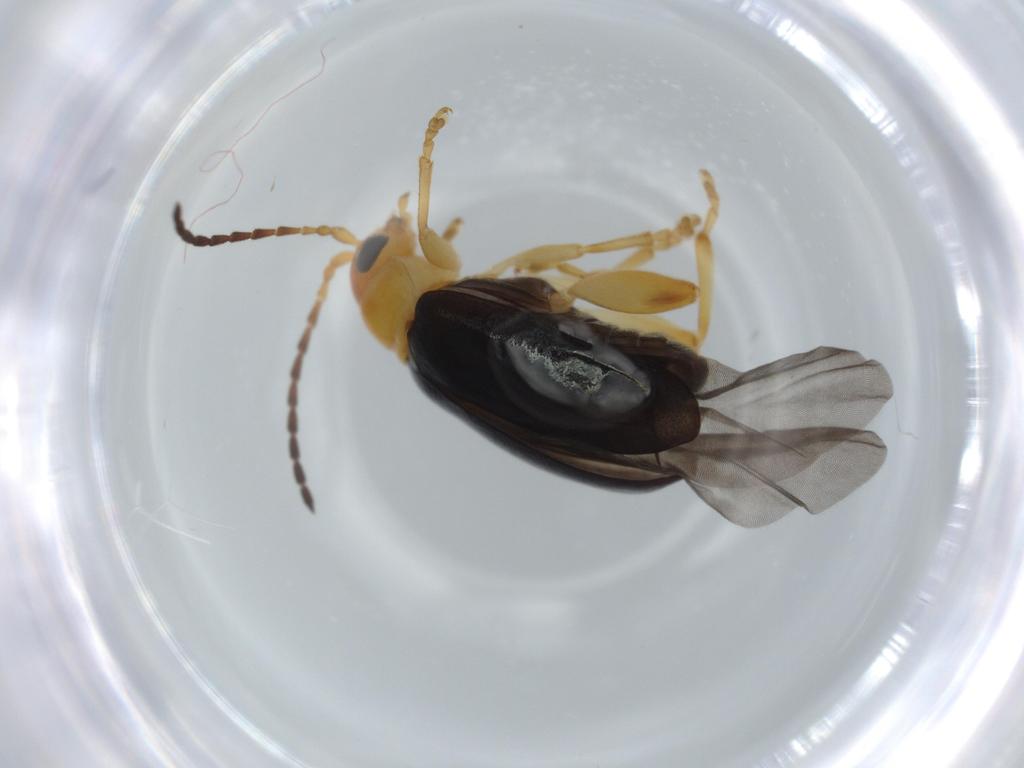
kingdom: Animalia
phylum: Arthropoda
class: Insecta
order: Coleoptera
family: Chrysomelidae
